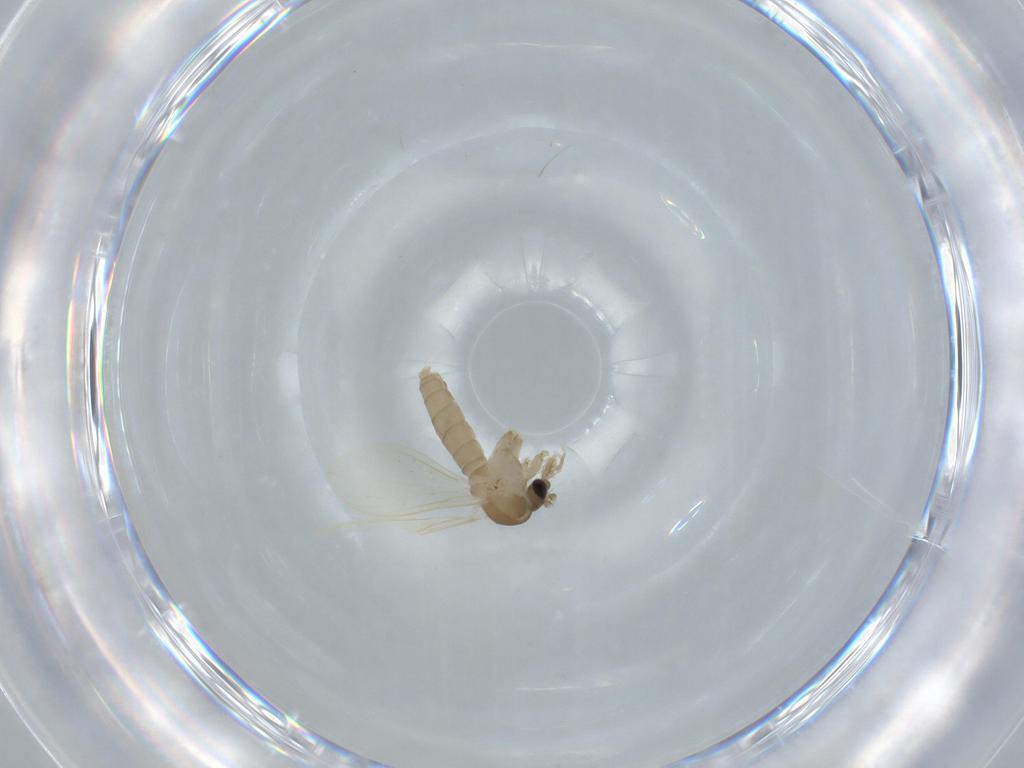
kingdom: Animalia
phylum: Arthropoda
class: Insecta
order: Diptera
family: Psychodidae
